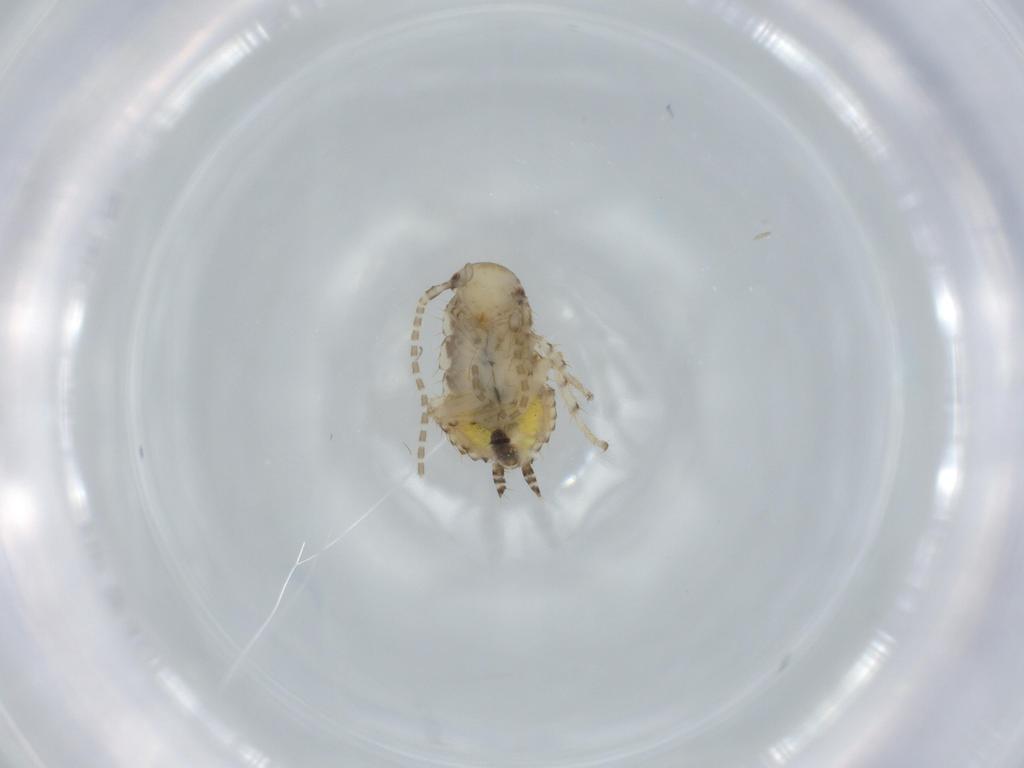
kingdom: Animalia
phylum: Arthropoda
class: Insecta
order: Blattodea
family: Ectobiidae
